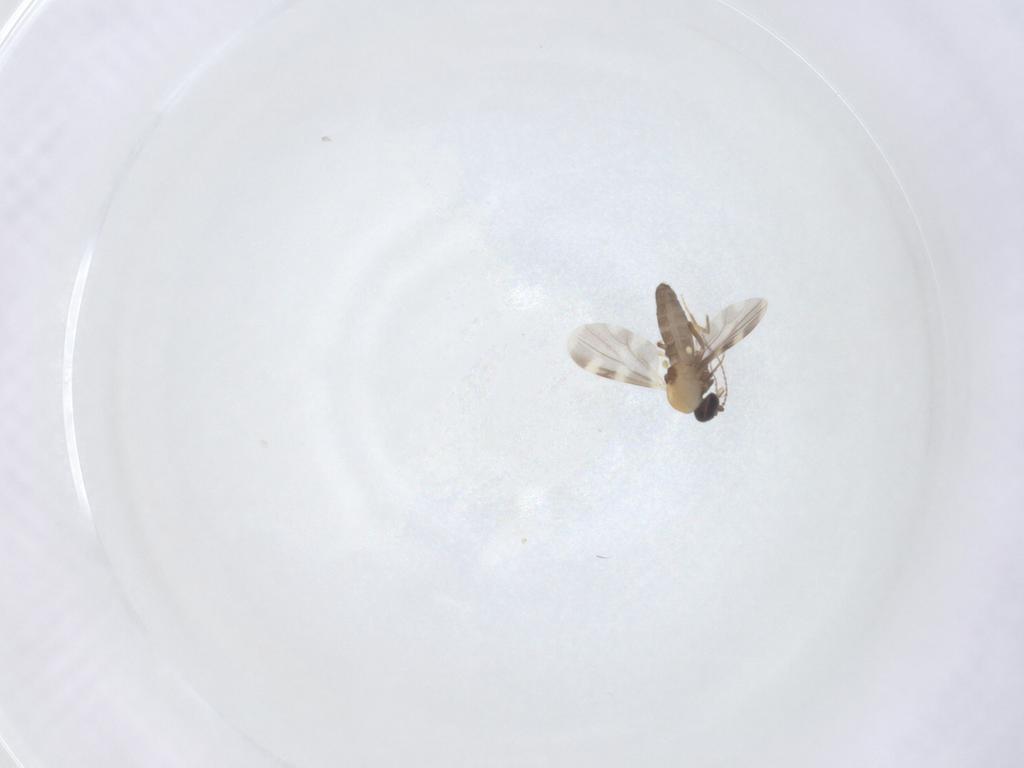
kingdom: Animalia
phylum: Arthropoda
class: Insecta
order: Diptera
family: Ceratopogonidae
